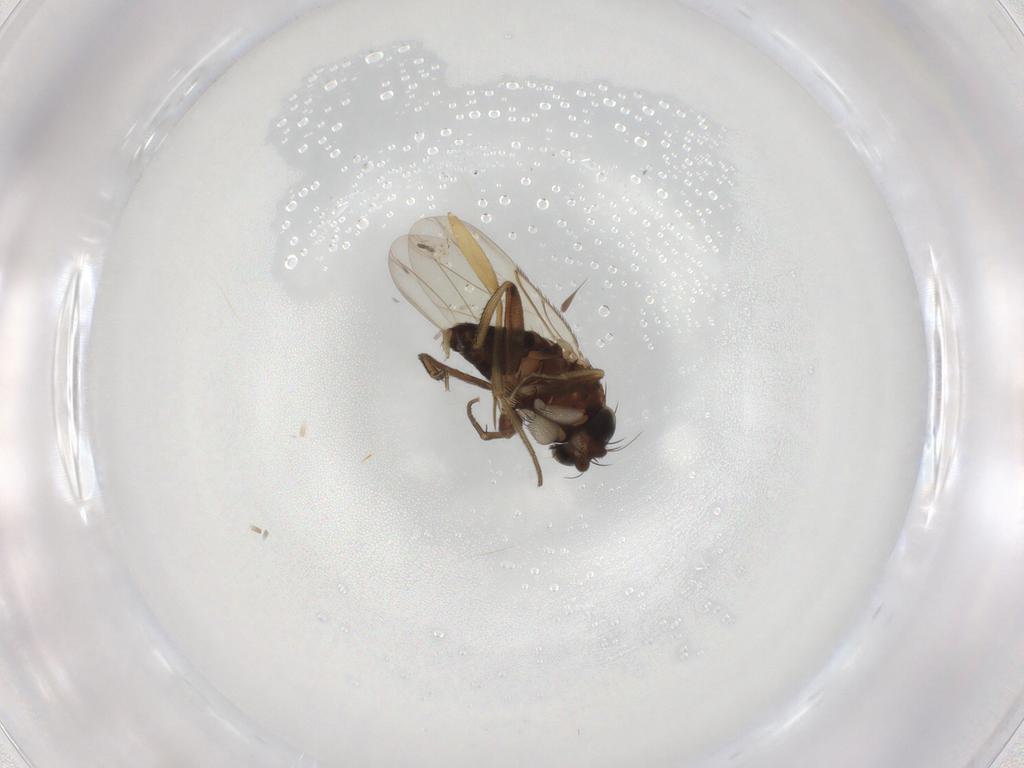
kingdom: Animalia
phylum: Arthropoda
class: Insecta
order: Diptera
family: Phoridae
